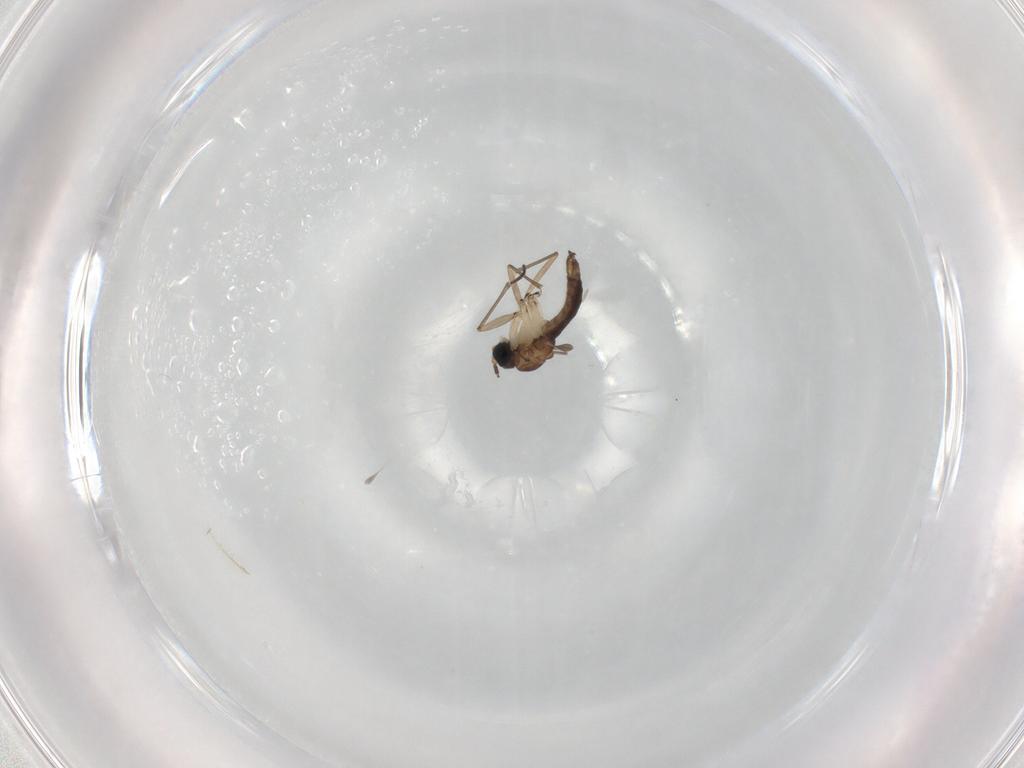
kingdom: Animalia
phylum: Arthropoda
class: Insecta
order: Diptera
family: Sciaridae
